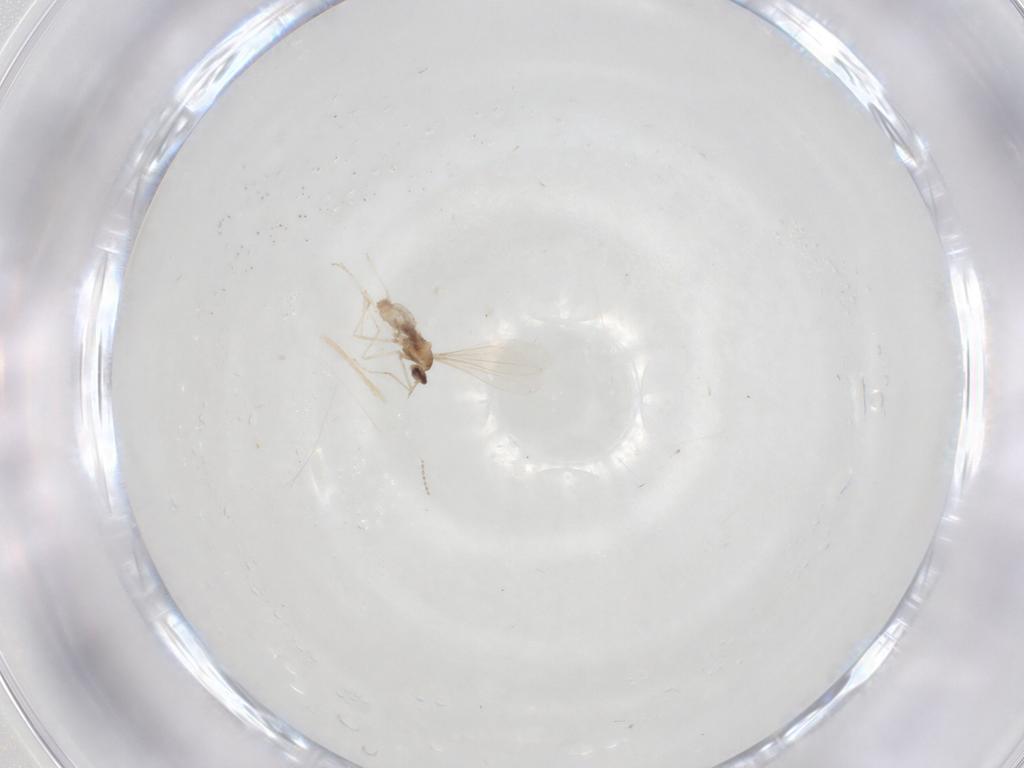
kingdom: Animalia
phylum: Arthropoda
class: Insecta
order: Diptera
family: Cecidomyiidae
